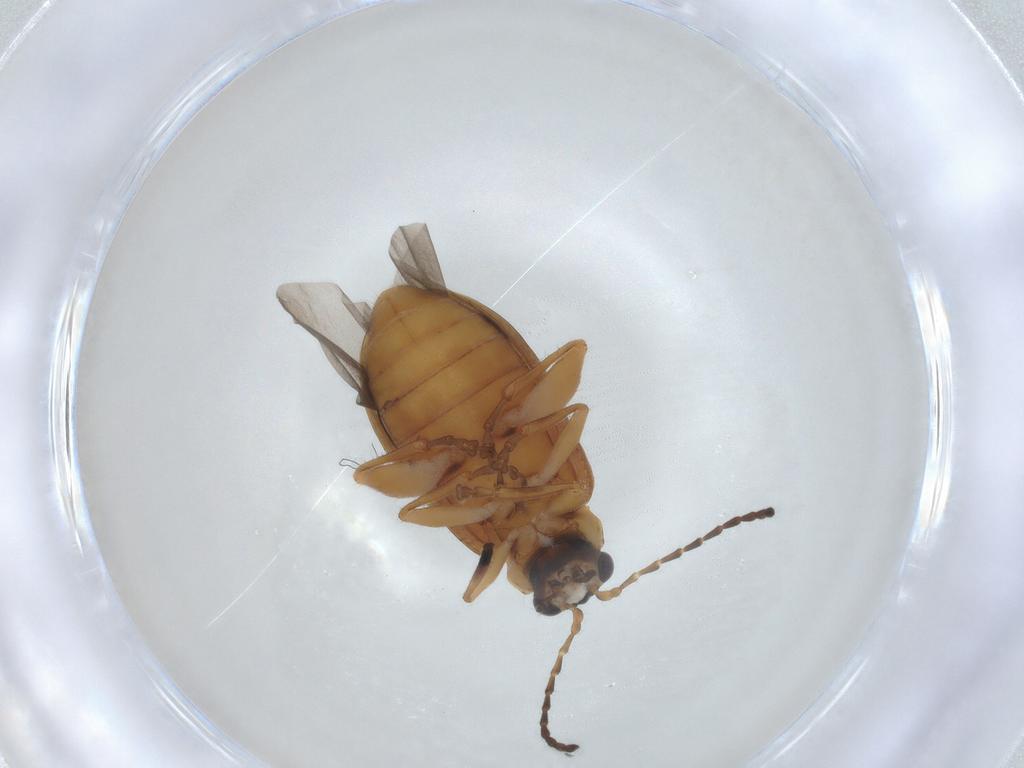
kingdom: Animalia
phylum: Arthropoda
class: Insecta
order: Coleoptera
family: Chrysomelidae
